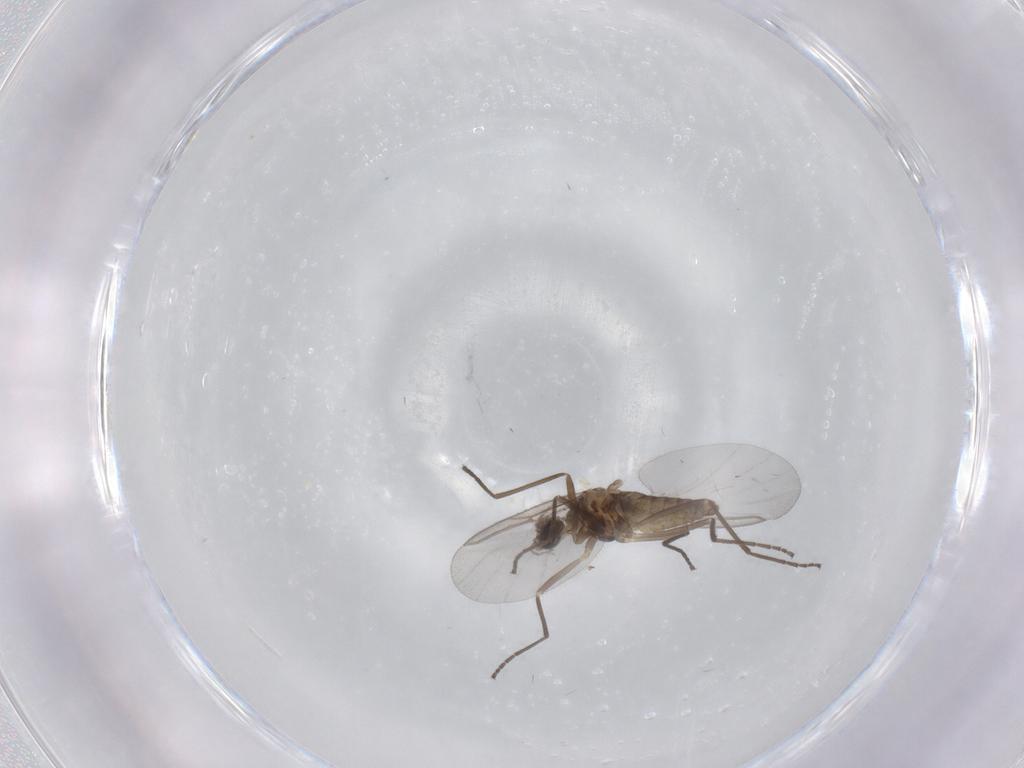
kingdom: Animalia
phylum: Arthropoda
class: Insecta
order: Diptera
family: Cecidomyiidae
